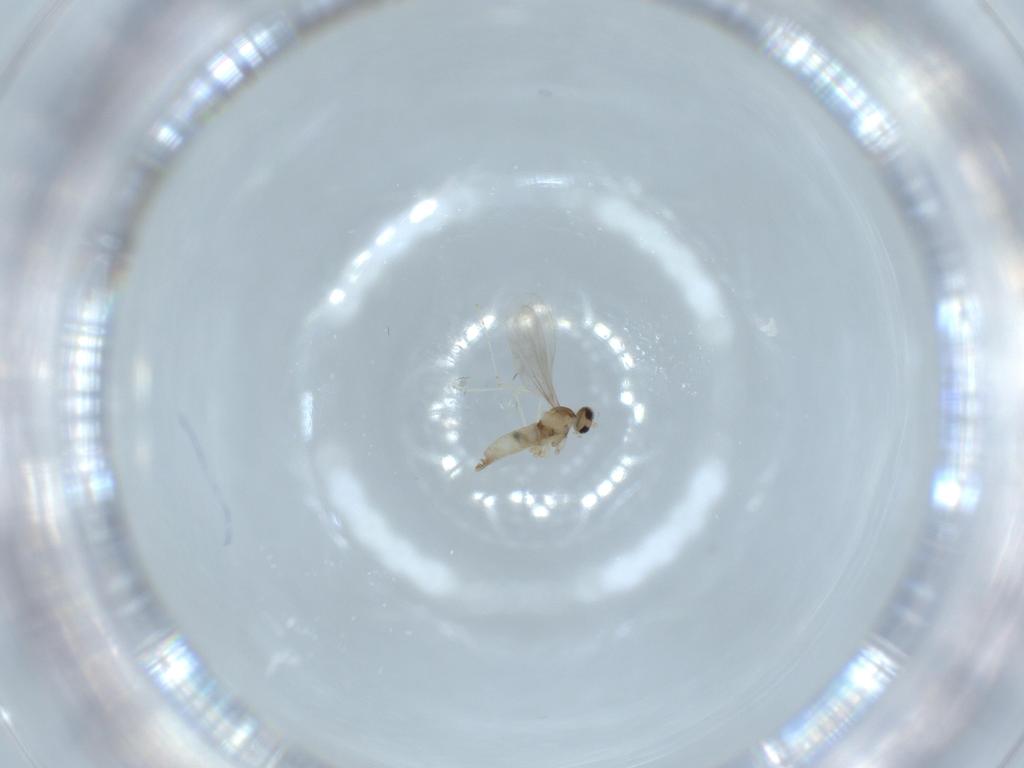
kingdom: Animalia
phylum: Arthropoda
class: Insecta
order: Diptera
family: Cecidomyiidae
